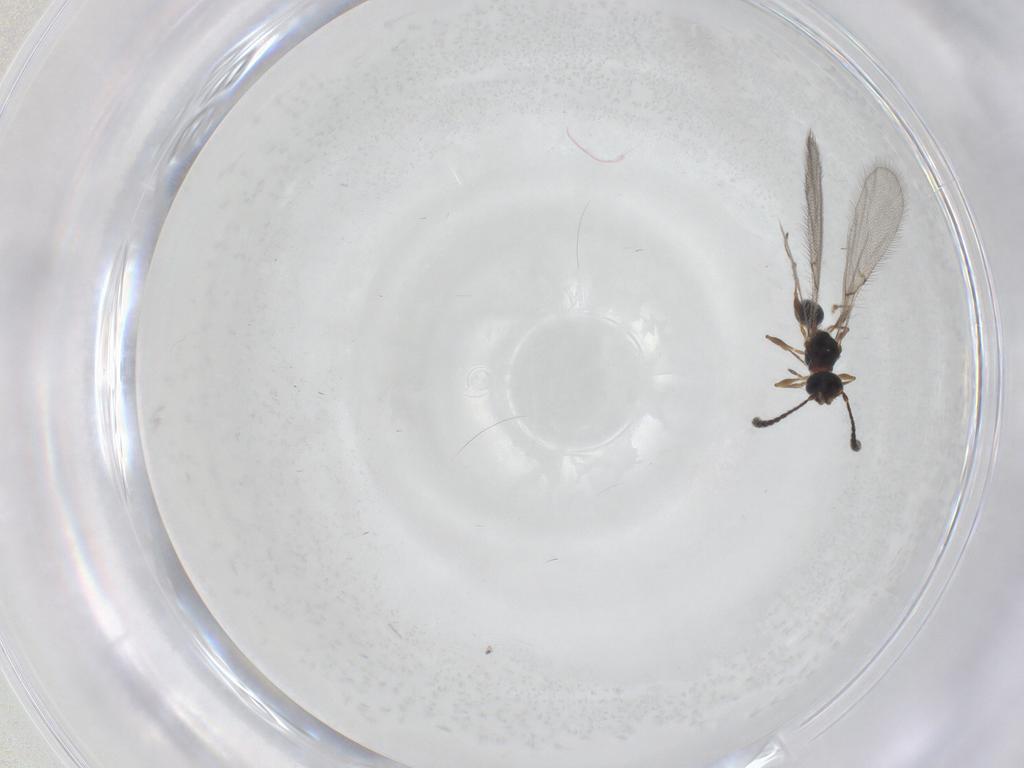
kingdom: Animalia
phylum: Arthropoda
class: Insecta
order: Hymenoptera
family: Diapriidae
